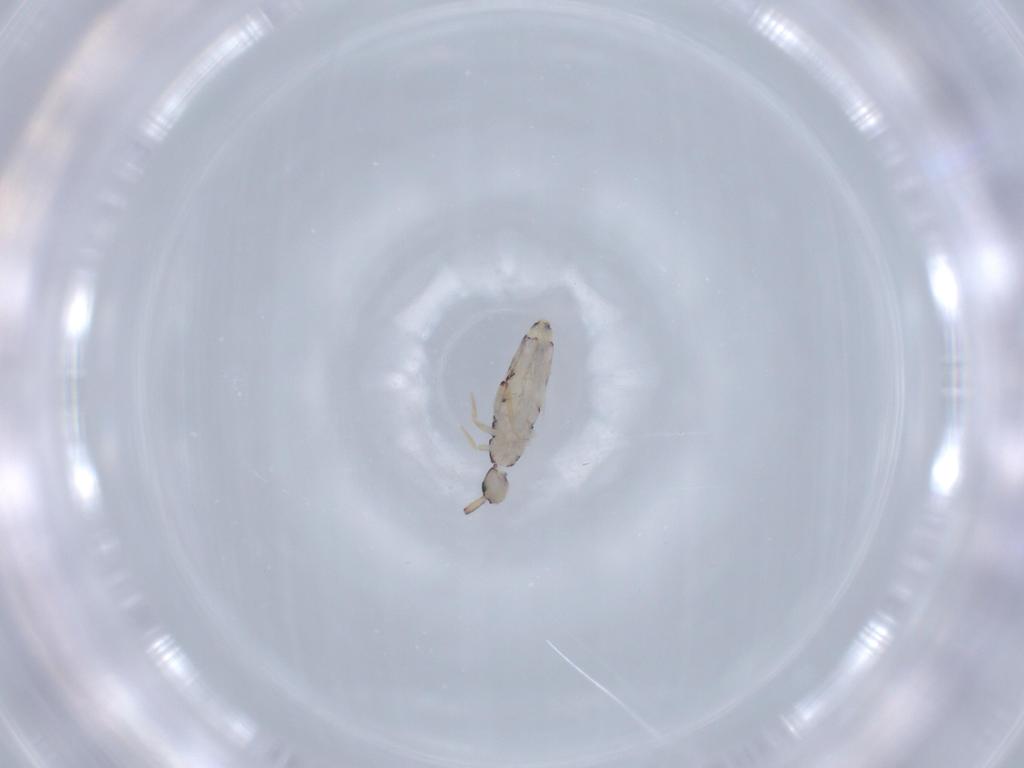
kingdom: Animalia
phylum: Arthropoda
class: Collembola
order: Entomobryomorpha
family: Entomobryidae
